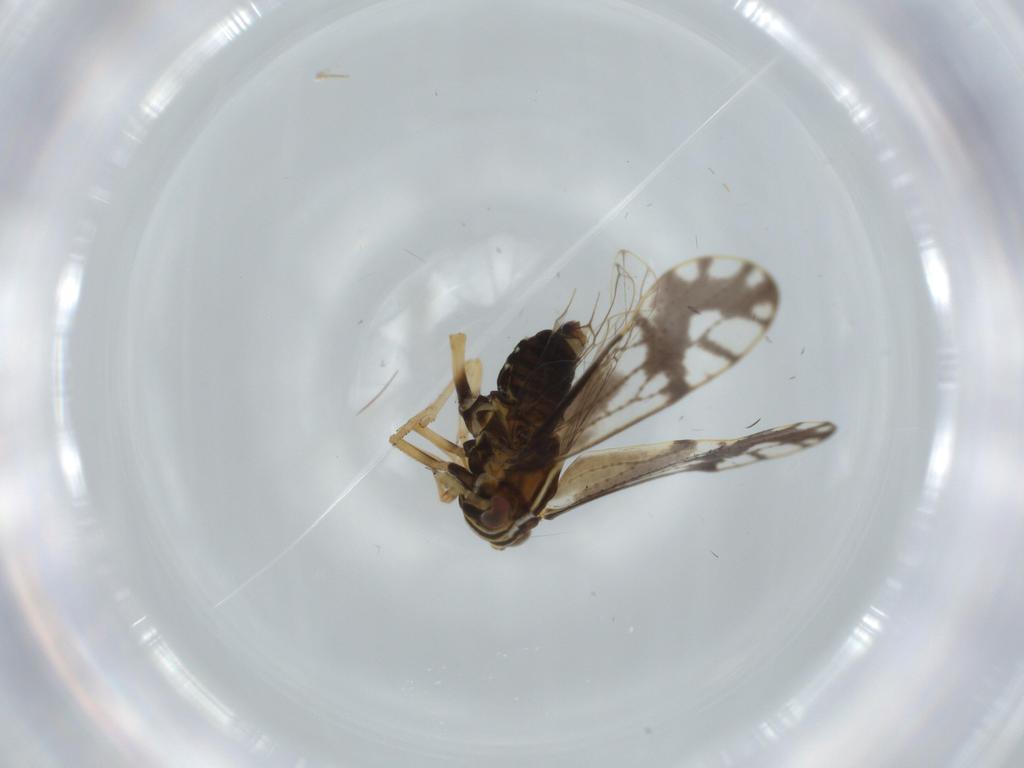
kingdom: Animalia
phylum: Arthropoda
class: Insecta
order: Hemiptera
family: Delphacidae
